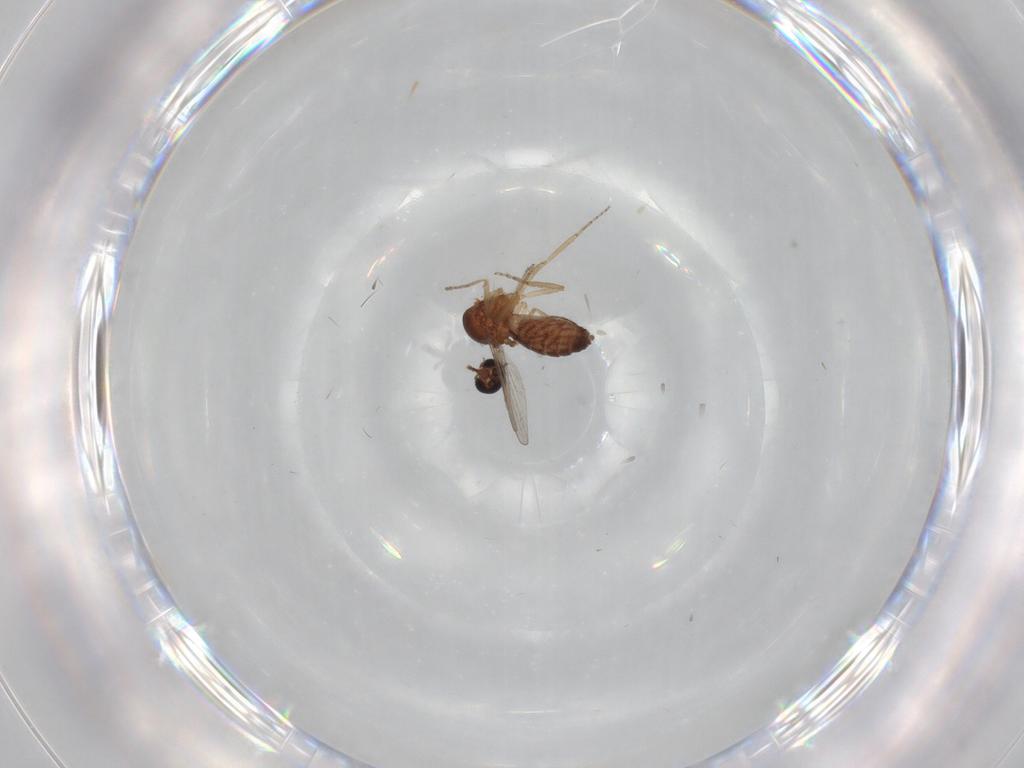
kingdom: Animalia
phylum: Arthropoda
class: Insecta
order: Diptera
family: Ceratopogonidae
